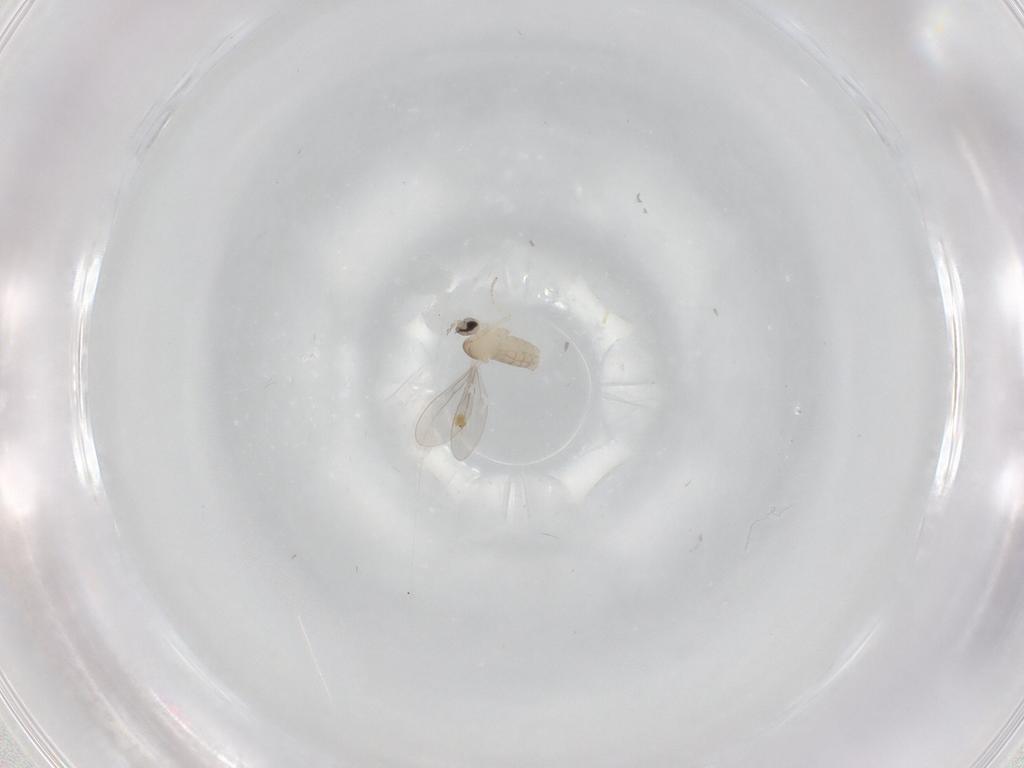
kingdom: Animalia
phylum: Arthropoda
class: Insecta
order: Diptera
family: Cecidomyiidae
